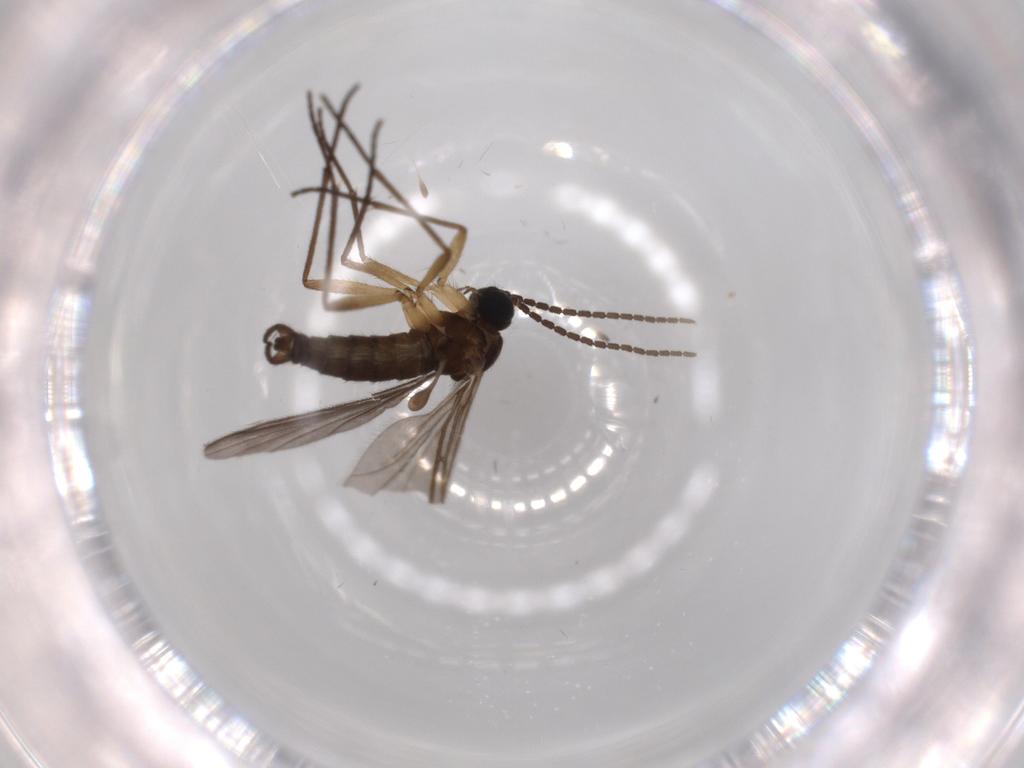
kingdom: Animalia
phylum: Arthropoda
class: Insecta
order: Diptera
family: Sciaridae
